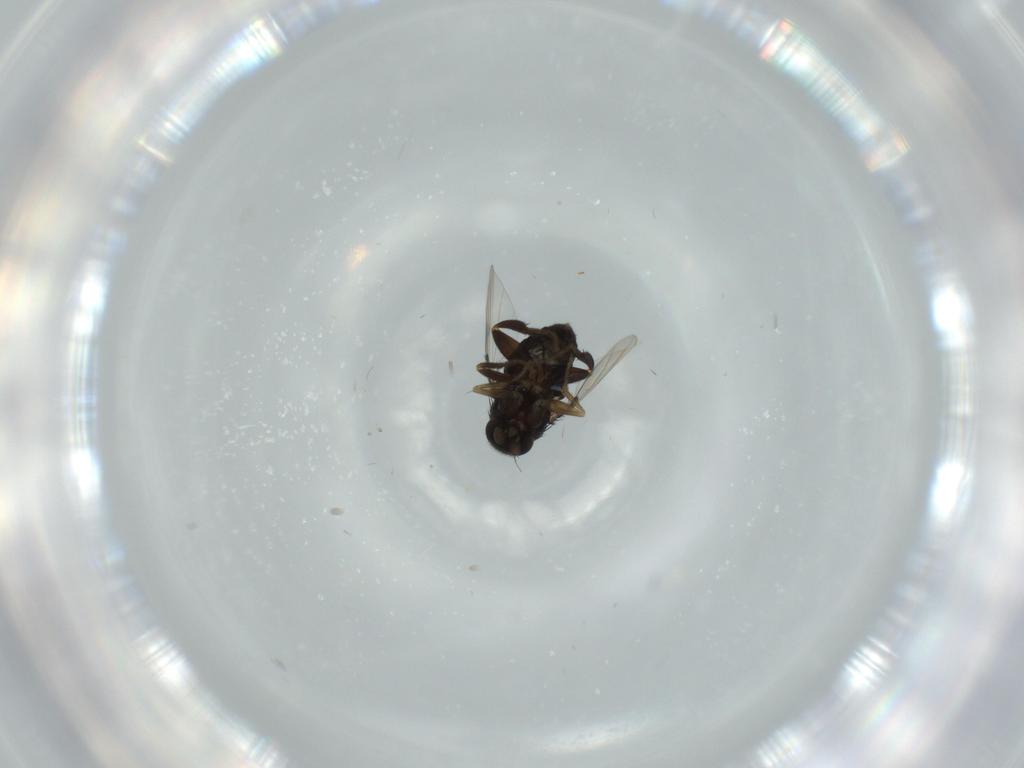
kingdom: Animalia
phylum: Arthropoda
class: Insecta
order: Diptera
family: Phoridae
